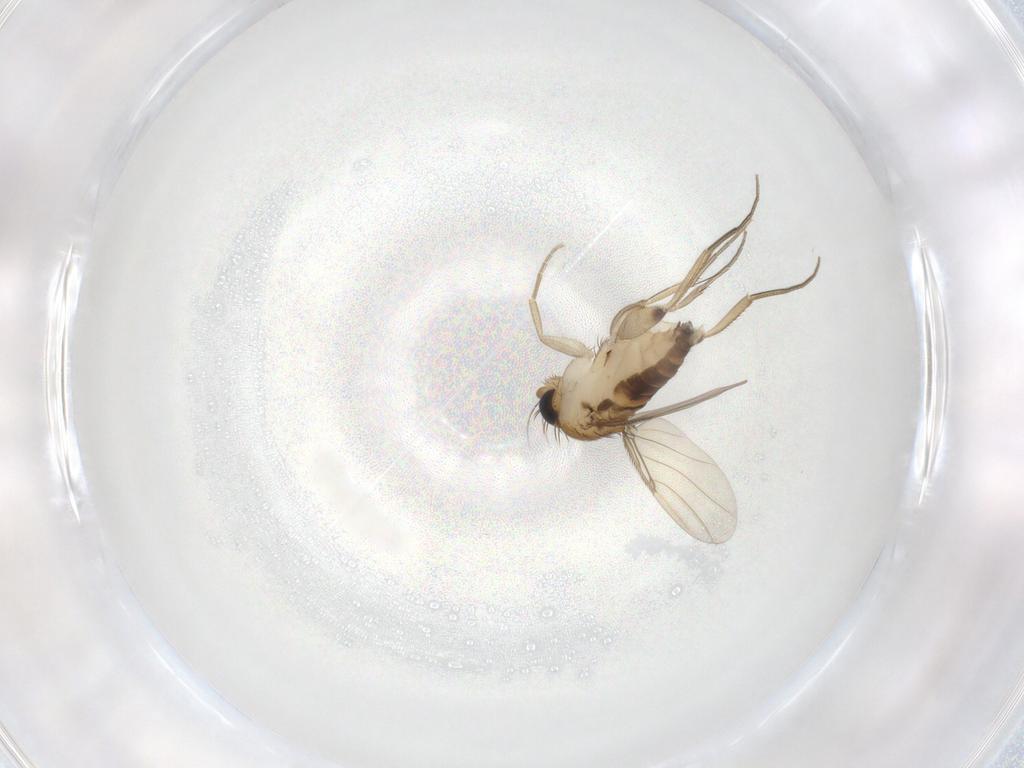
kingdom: Animalia
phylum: Arthropoda
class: Insecta
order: Diptera
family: Phoridae
